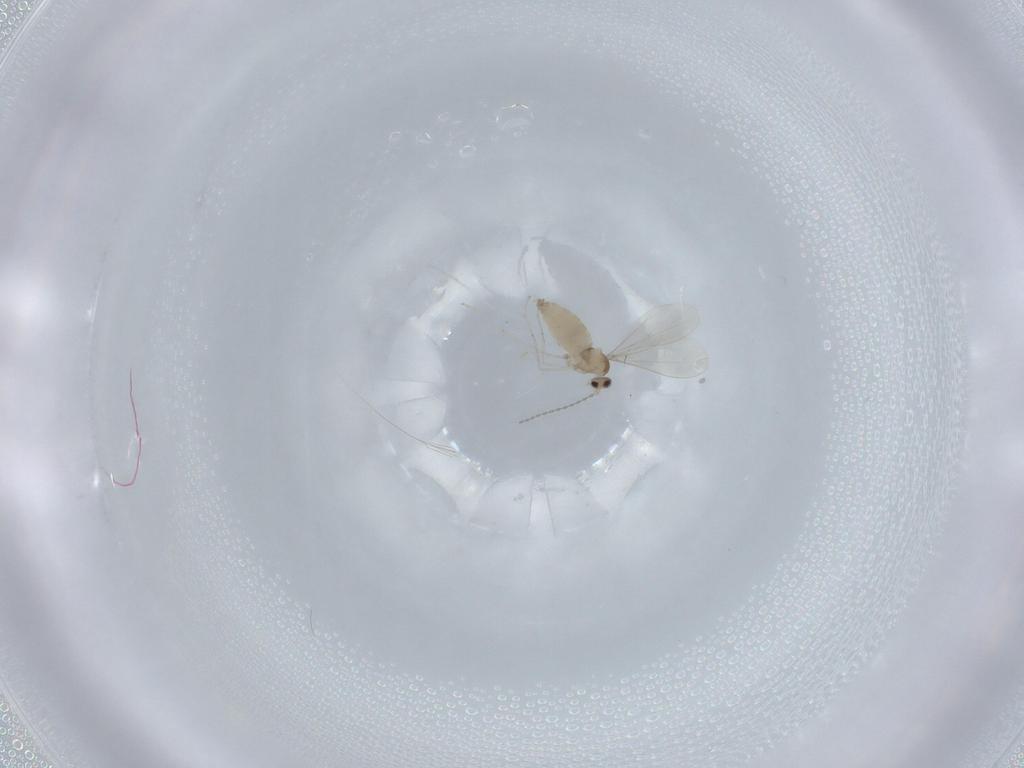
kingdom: Animalia
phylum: Arthropoda
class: Insecta
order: Diptera
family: Cecidomyiidae
